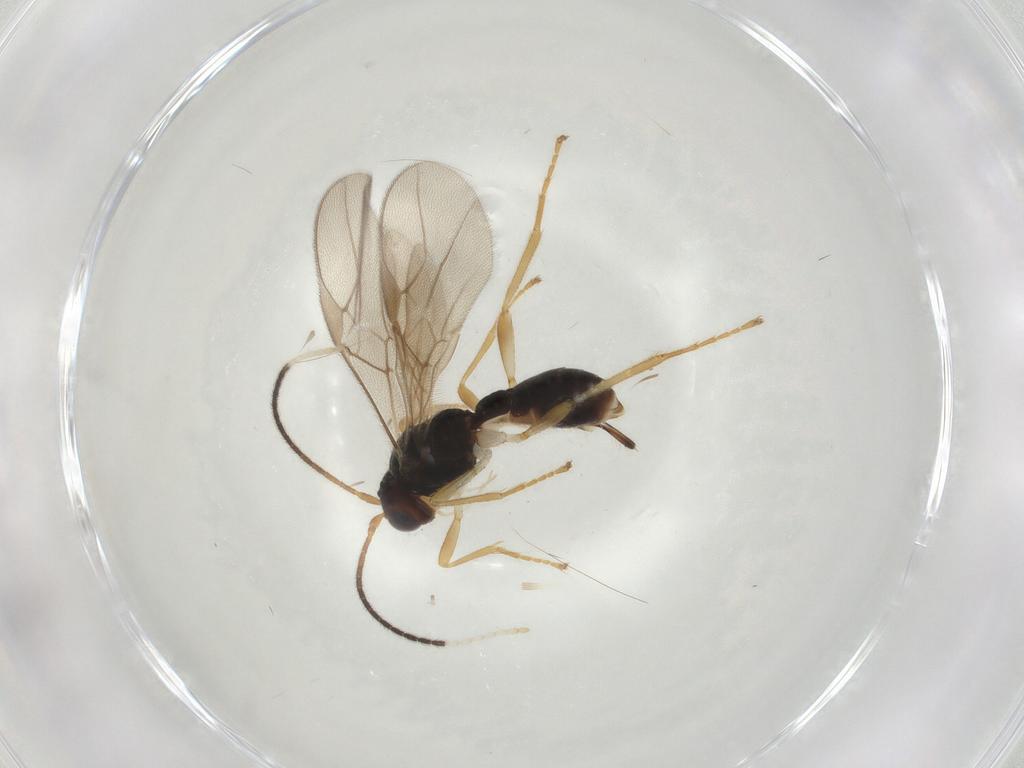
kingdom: Animalia
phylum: Arthropoda
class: Insecta
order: Hymenoptera
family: Braconidae
